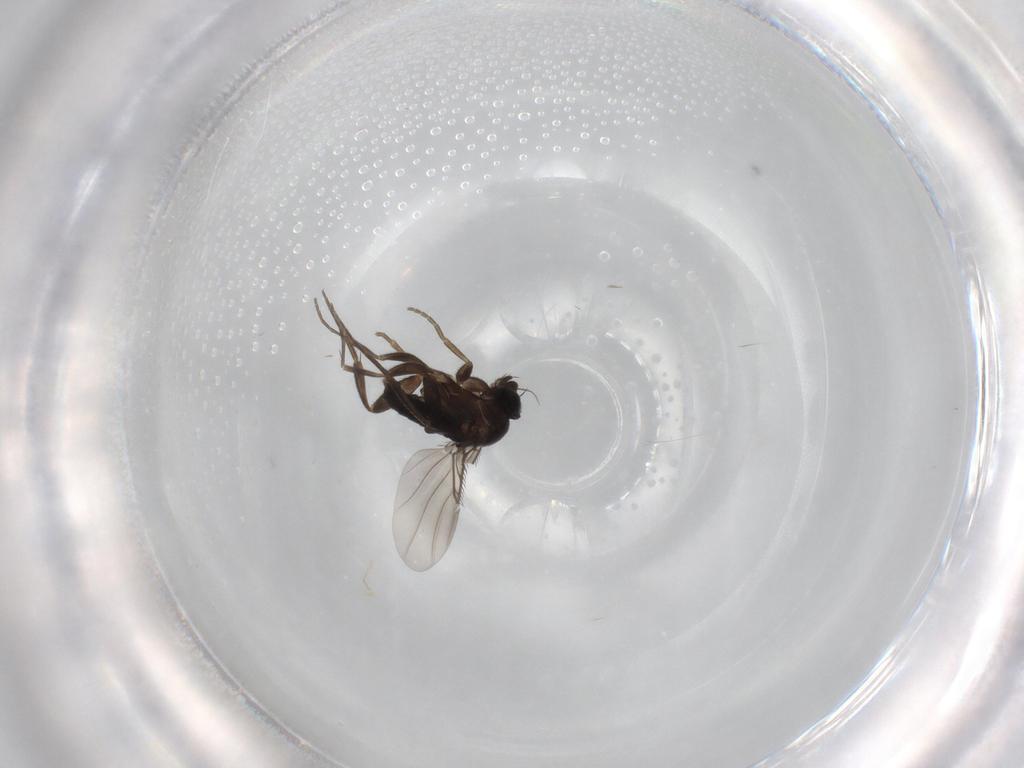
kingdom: Animalia
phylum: Arthropoda
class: Insecta
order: Diptera
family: Phoridae
